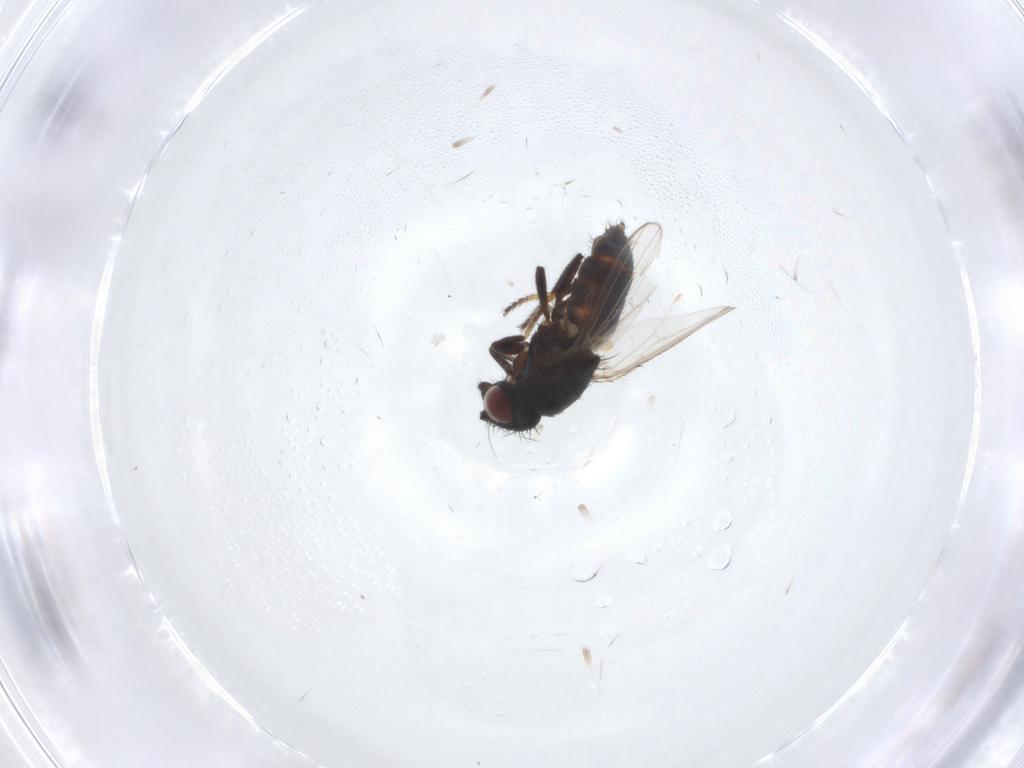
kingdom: Animalia
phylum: Arthropoda
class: Insecta
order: Diptera
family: Milichiidae
